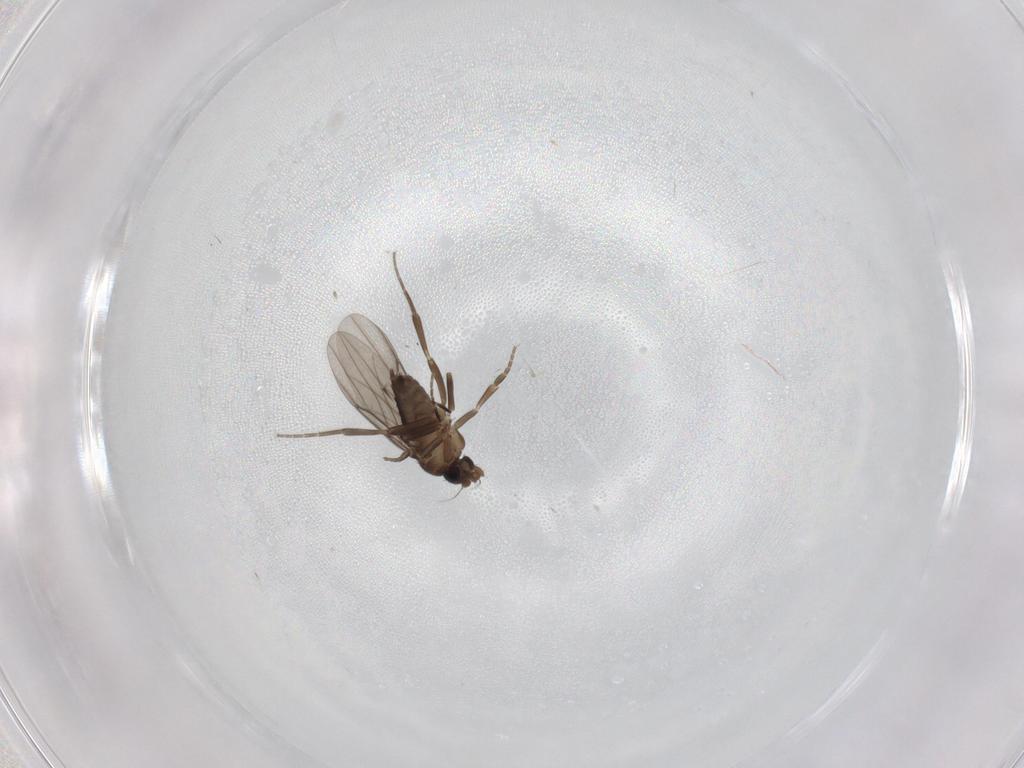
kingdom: Animalia
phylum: Arthropoda
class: Insecta
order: Diptera
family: Phoridae
